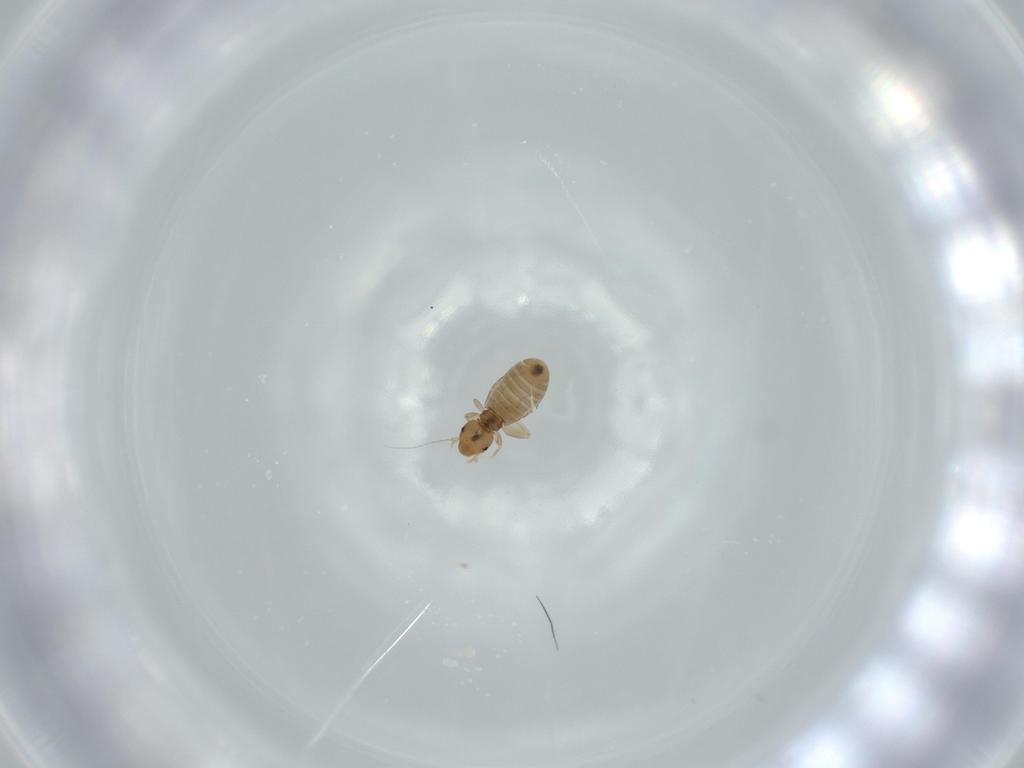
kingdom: Animalia
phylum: Arthropoda
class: Insecta
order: Psocodea
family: Liposcelididae
